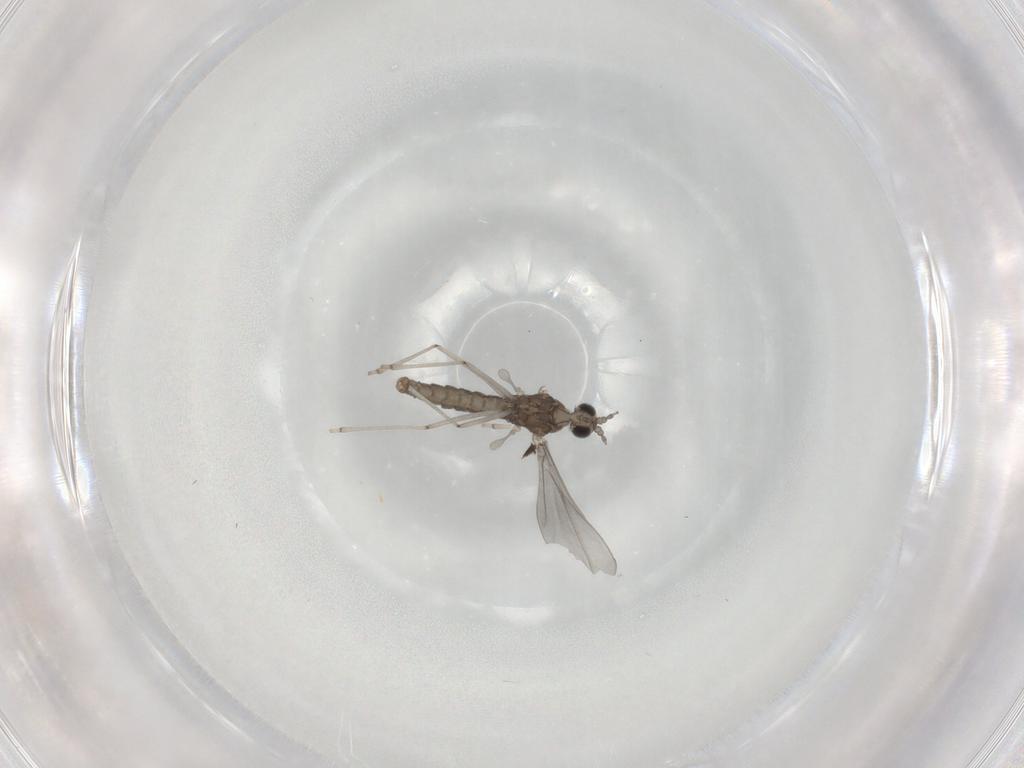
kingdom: Animalia
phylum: Arthropoda
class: Insecta
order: Diptera
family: Cecidomyiidae
